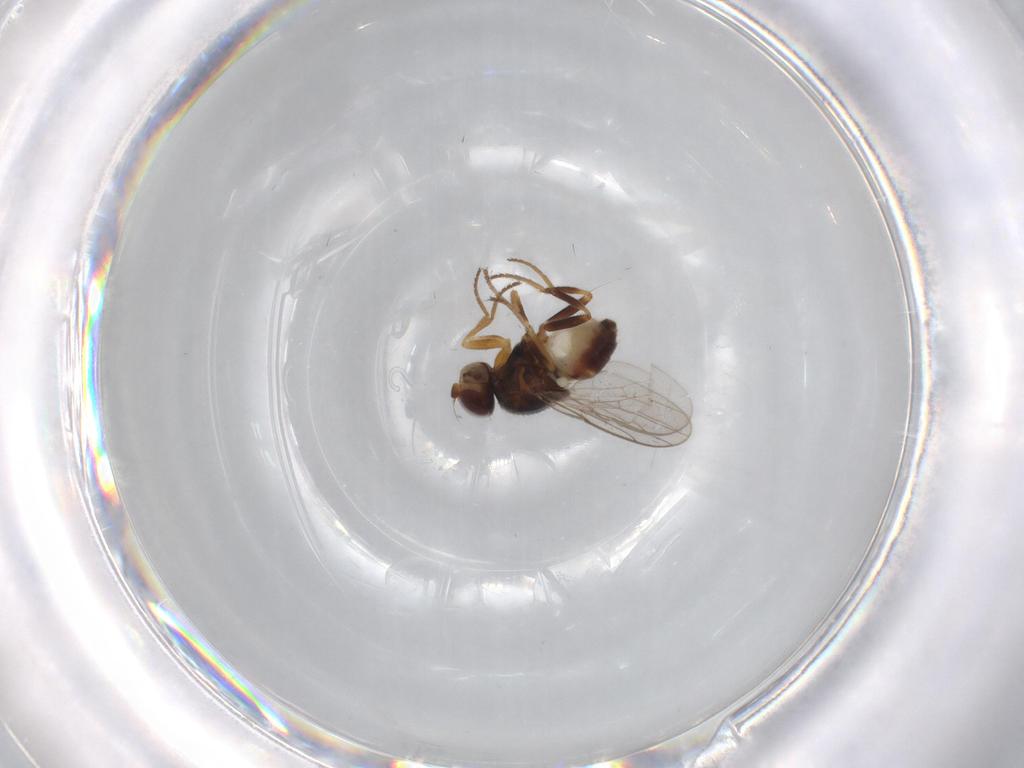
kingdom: Animalia
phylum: Arthropoda
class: Insecta
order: Diptera
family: Chloropidae
